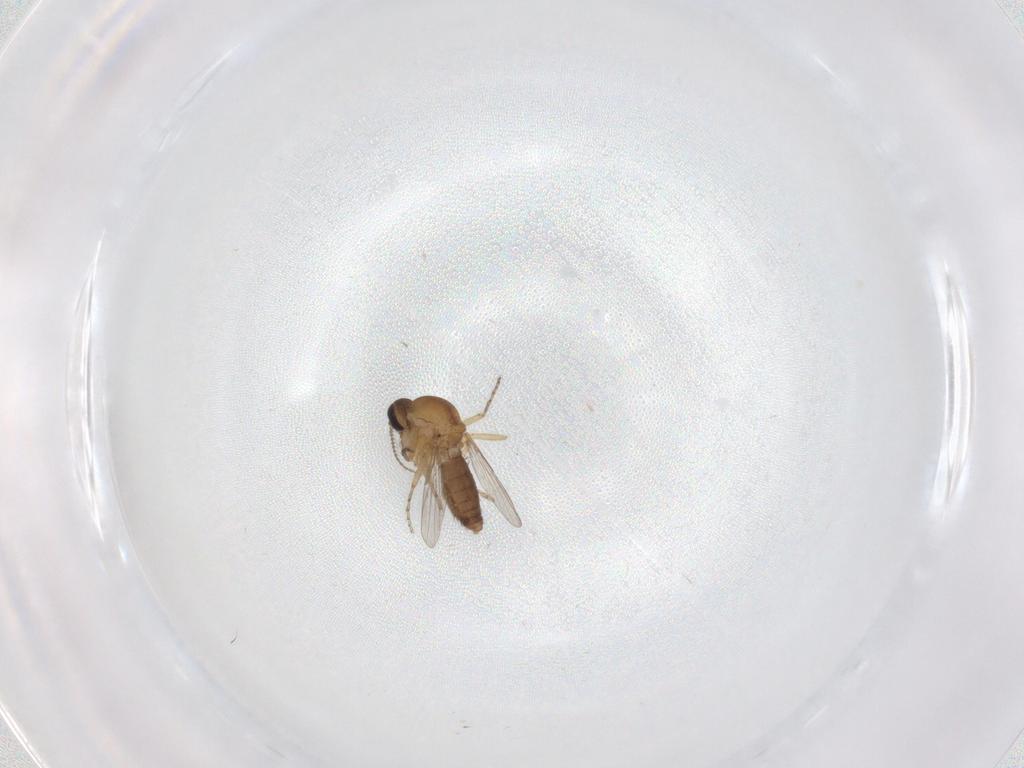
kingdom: Animalia
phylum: Arthropoda
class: Insecta
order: Diptera
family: Ceratopogonidae
